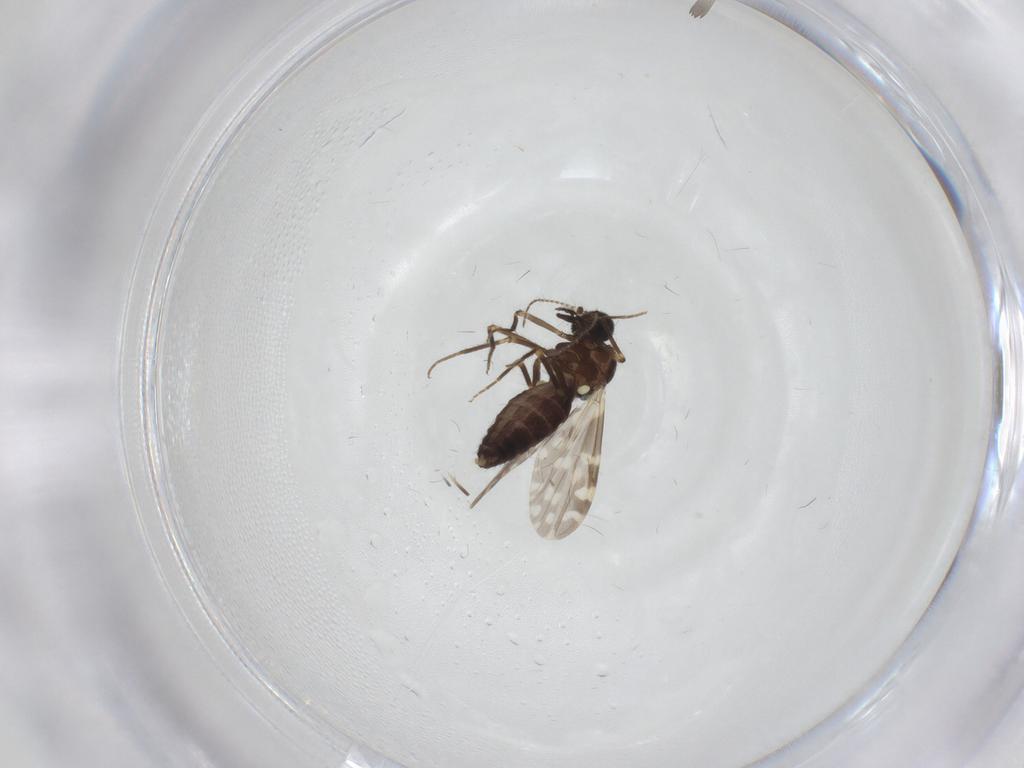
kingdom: Animalia
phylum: Arthropoda
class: Insecta
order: Diptera
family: Ceratopogonidae
